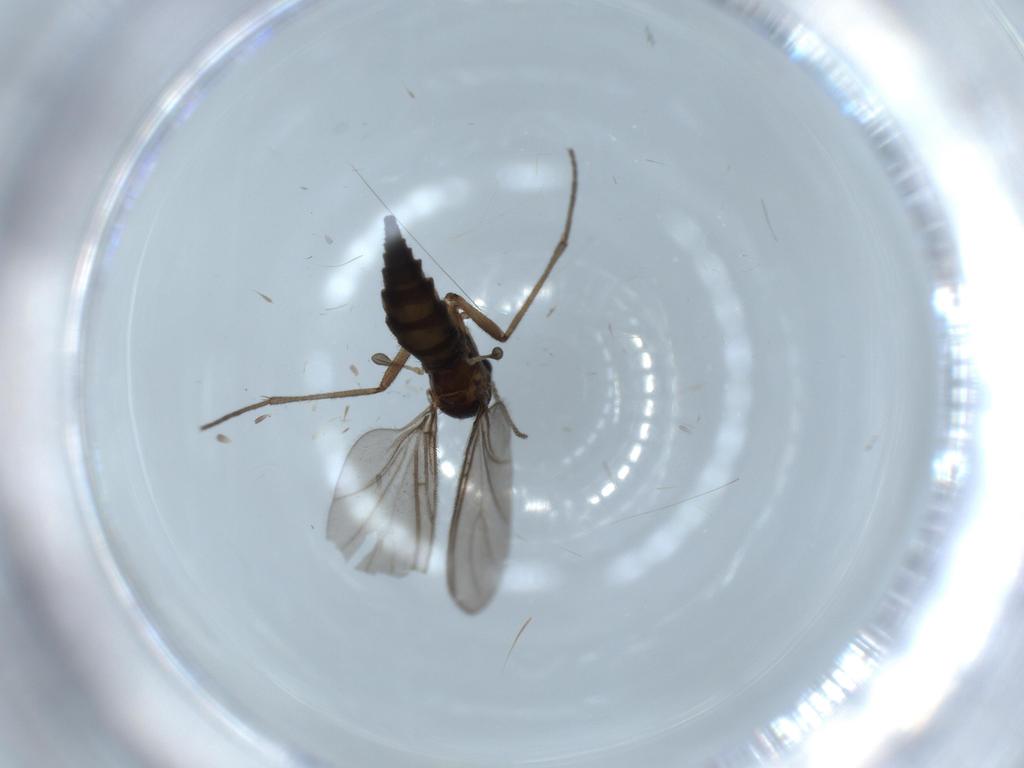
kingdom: Animalia
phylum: Arthropoda
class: Insecta
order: Diptera
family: Sciaridae
